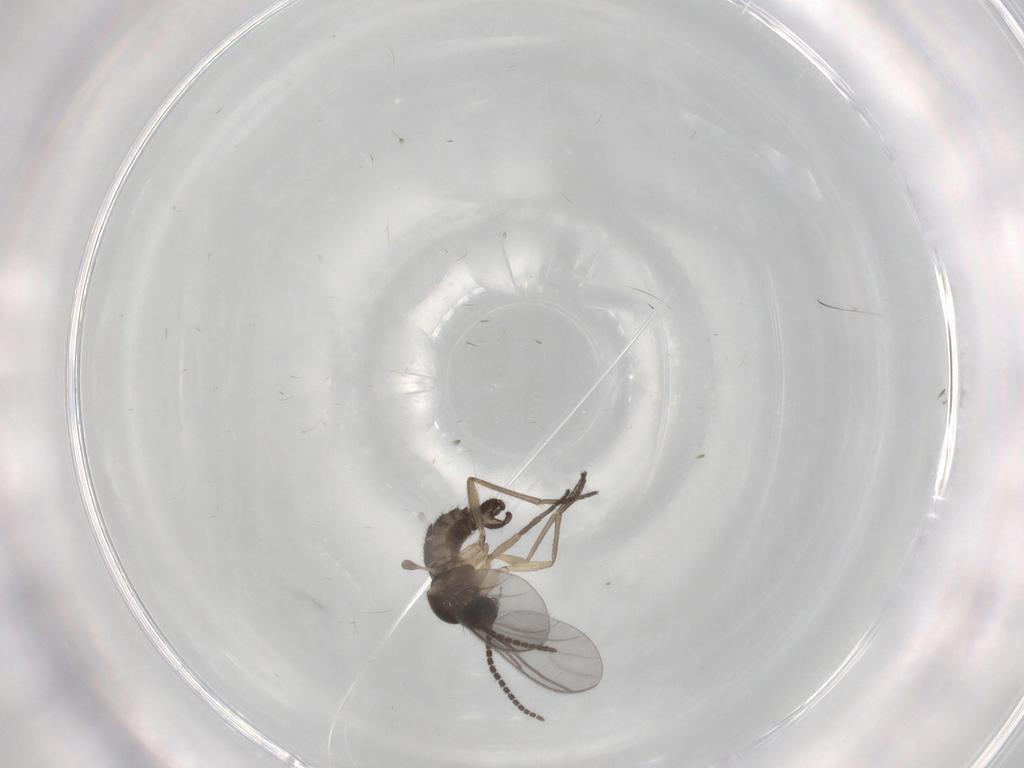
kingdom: Animalia
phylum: Arthropoda
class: Insecta
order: Diptera
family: Sciaridae
